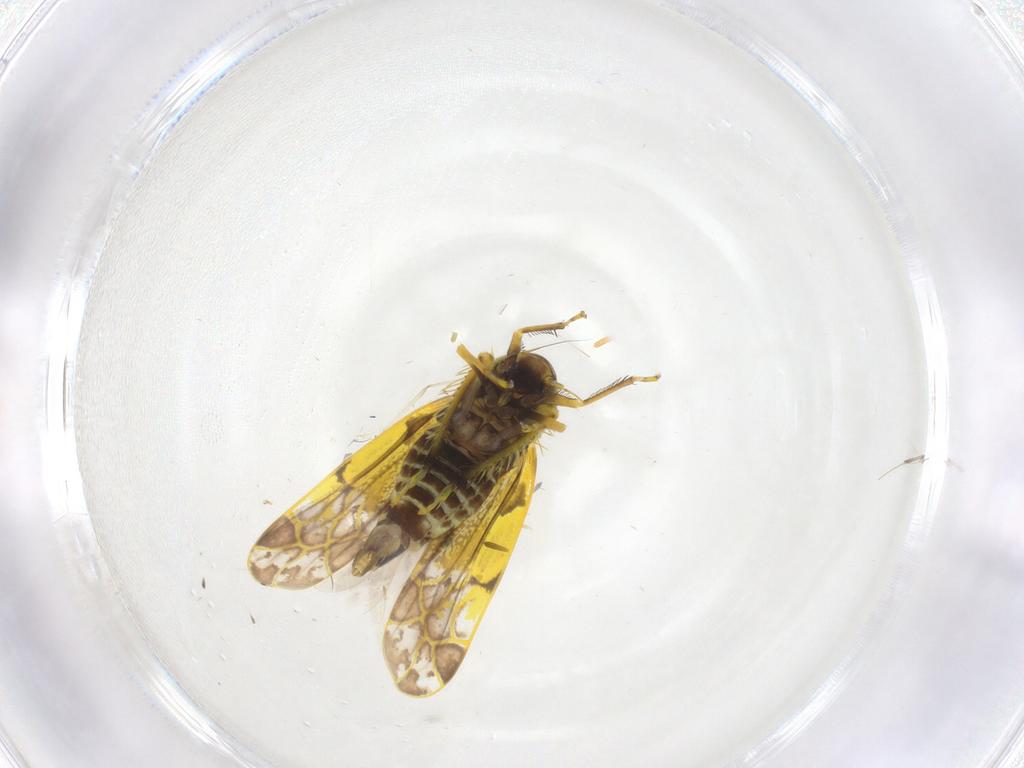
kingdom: Animalia
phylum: Arthropoda
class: Insecta
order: Hemiptera
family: Cicadellidae
